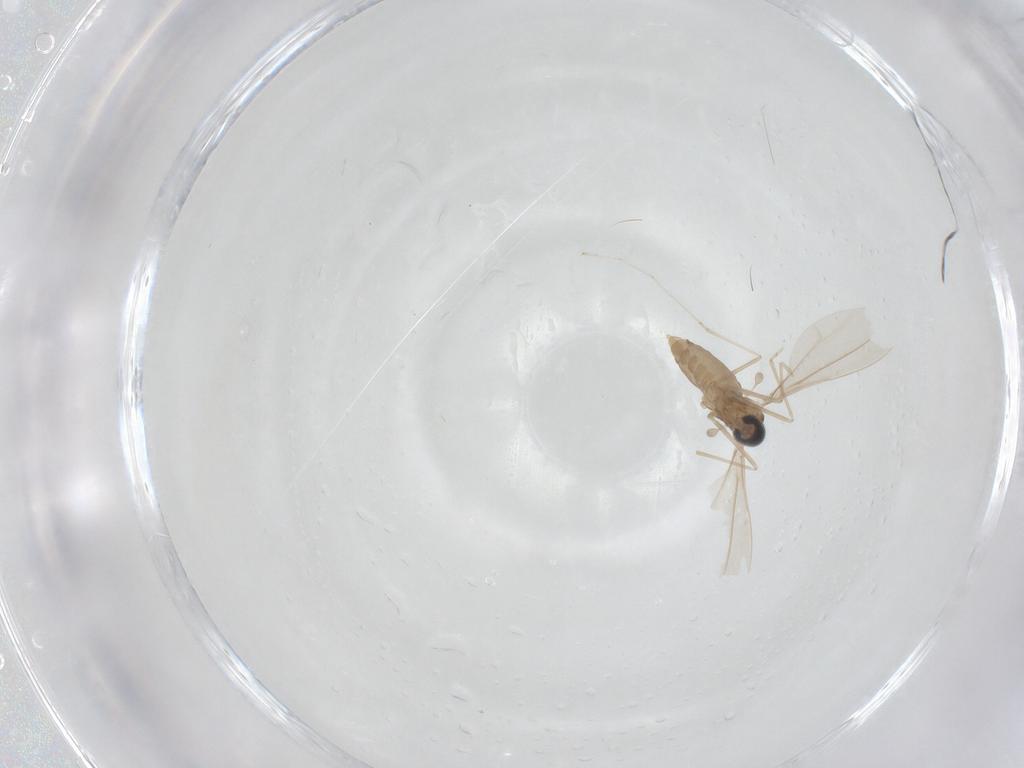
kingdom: Animalia
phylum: Arthropoda
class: Insecta
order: Diptera
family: Cecidomyiidae
